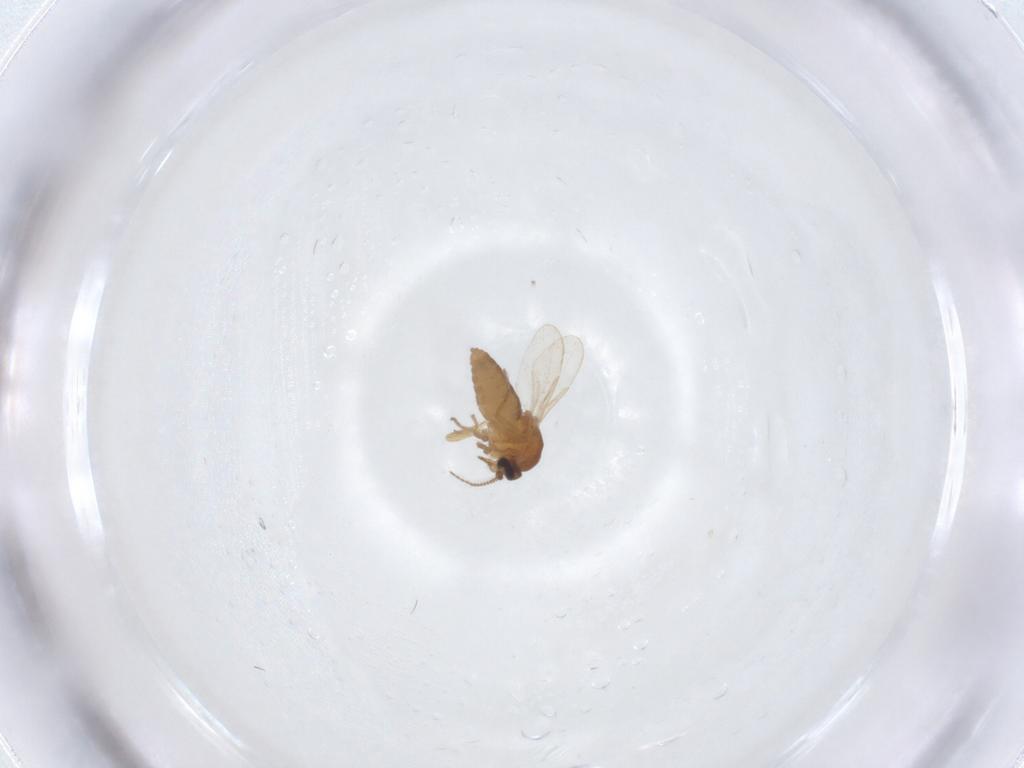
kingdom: Animalia
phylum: Arthropoda
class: Insecta
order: Diptera
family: Ceratopogonidae
